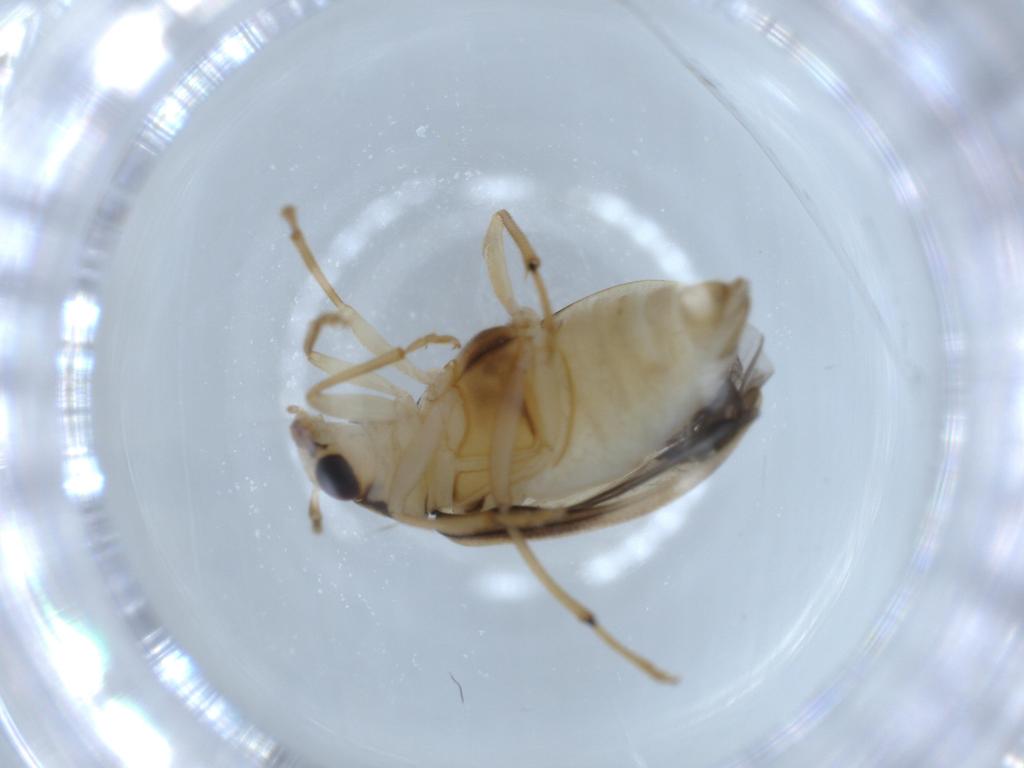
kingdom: Animalia
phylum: Arthropoda
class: Insecta
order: Coleoptera
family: Chrysomelidae
